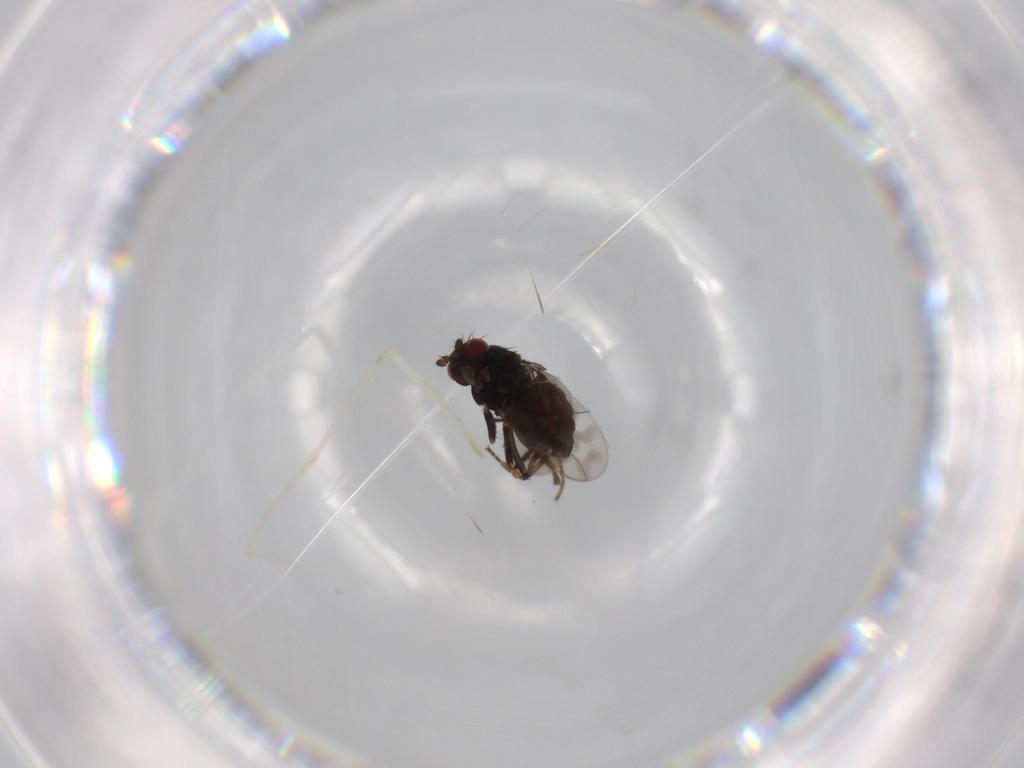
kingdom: Animalia
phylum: Arthropoda
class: Insecta
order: Diptera
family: Sphaeroceridae
